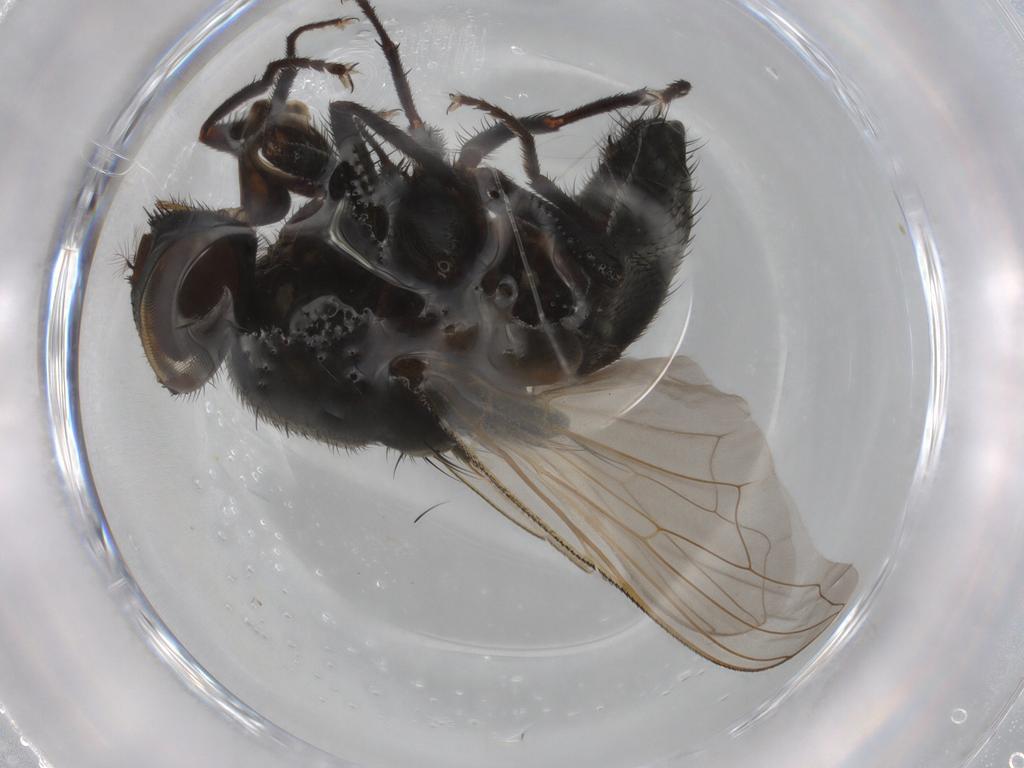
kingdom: Animalia
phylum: Arthropoda
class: Insecta
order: Diptera
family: Muscidae
